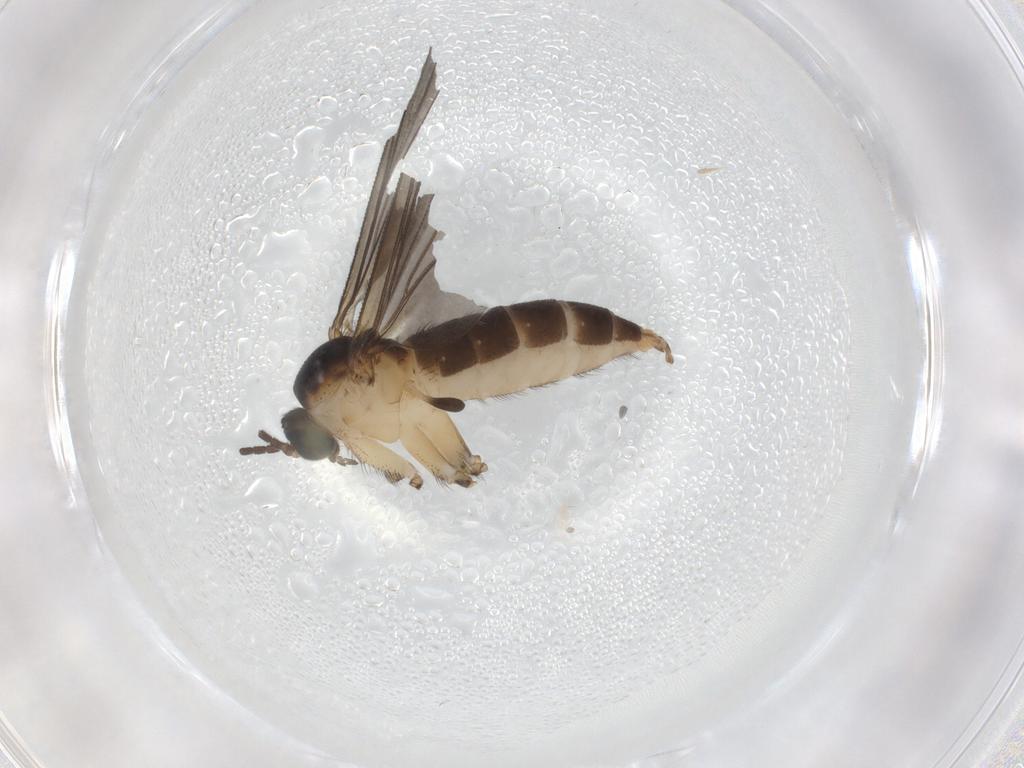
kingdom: Animalia
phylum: Arthropoda
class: Insecta
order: Diptera
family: Sciaridae
